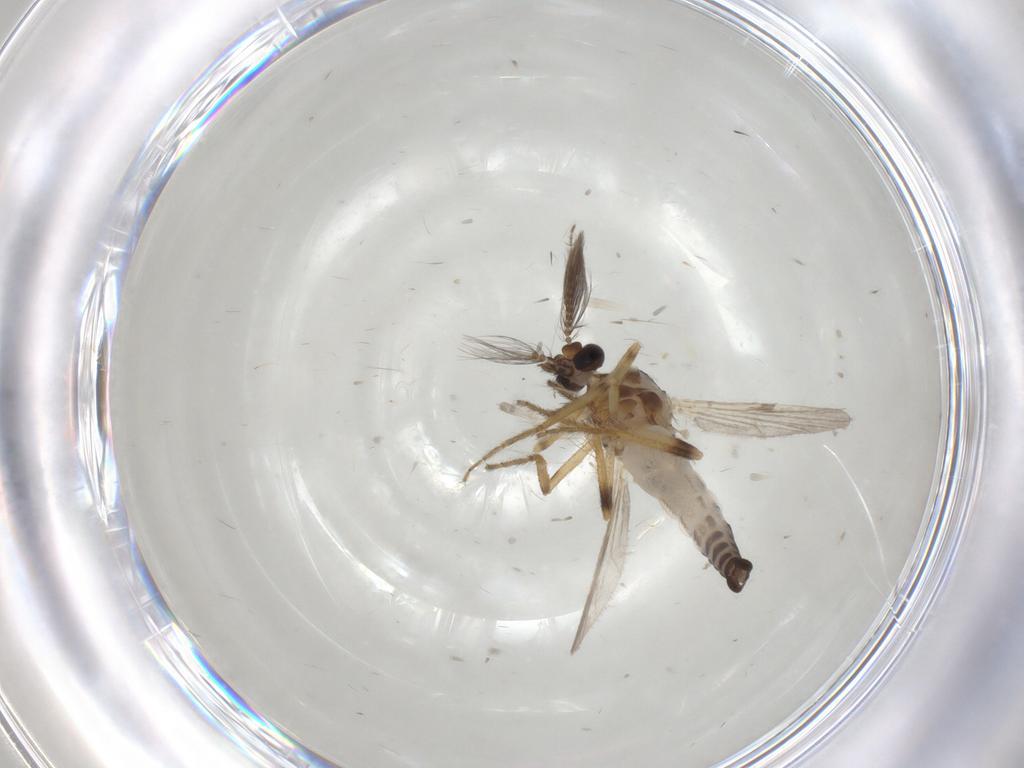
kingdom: Animalia
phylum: Arthropoda
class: Insecta
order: Diptera
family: Ceratopogonidae
